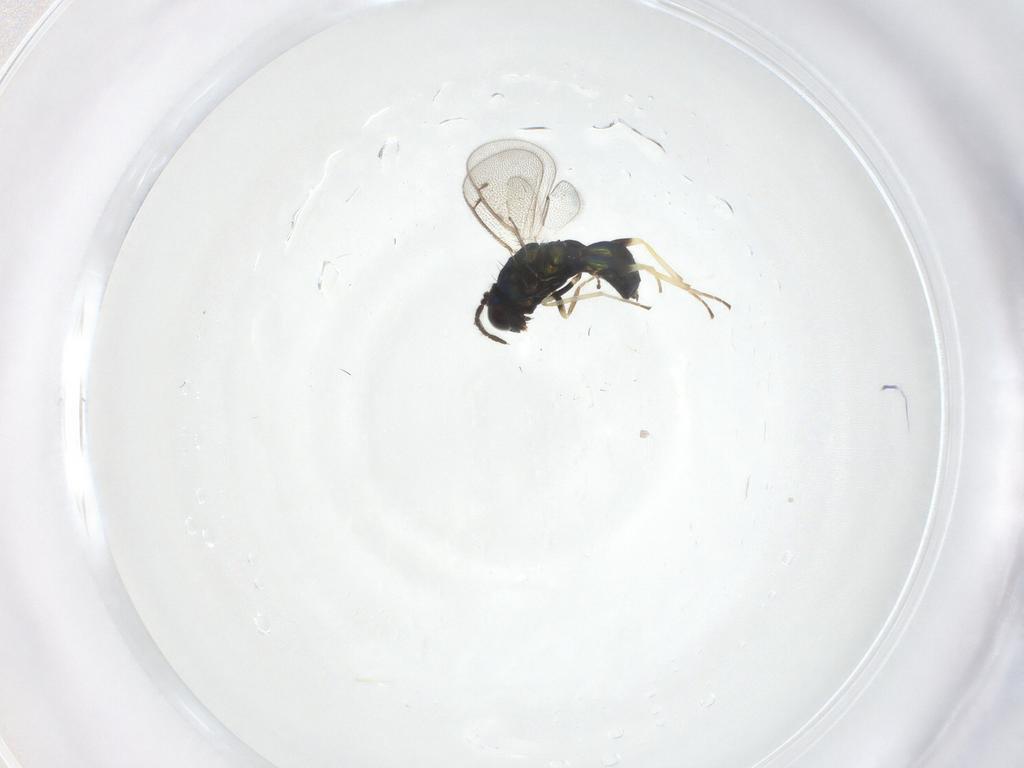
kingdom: Animalia
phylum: Arthropoda
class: Insecta
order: Hymenoptera
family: Eulophidae
